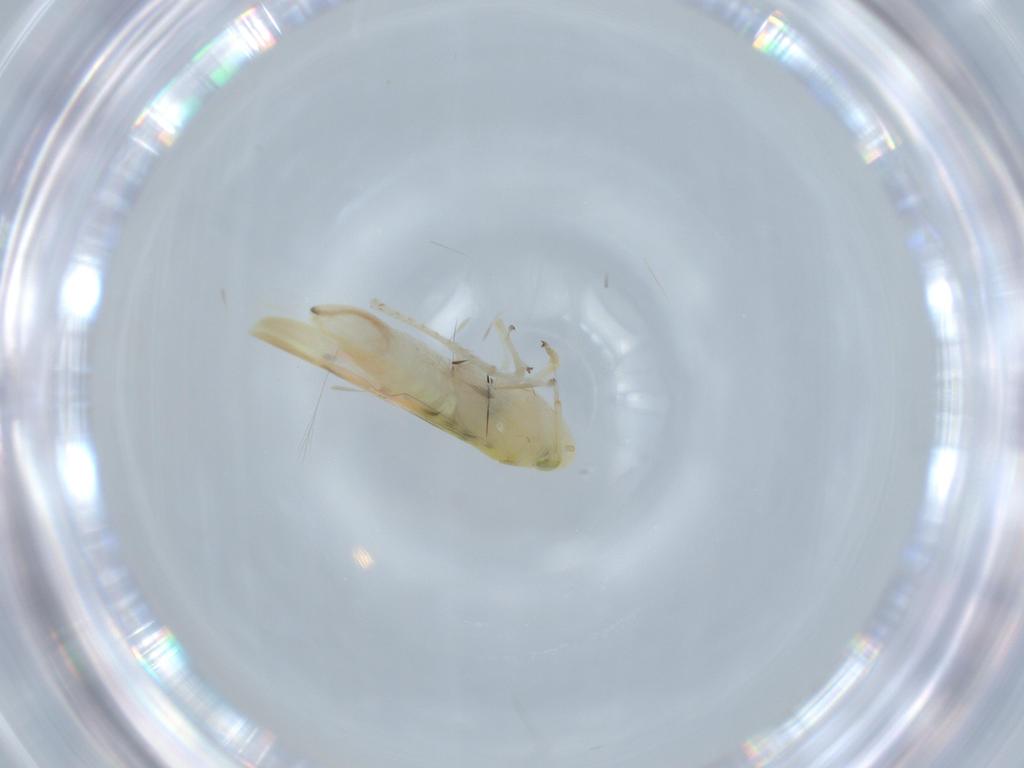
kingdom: Animalia
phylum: Arthropoda
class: Insecta
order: Hemiptera
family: Cicadellidae
